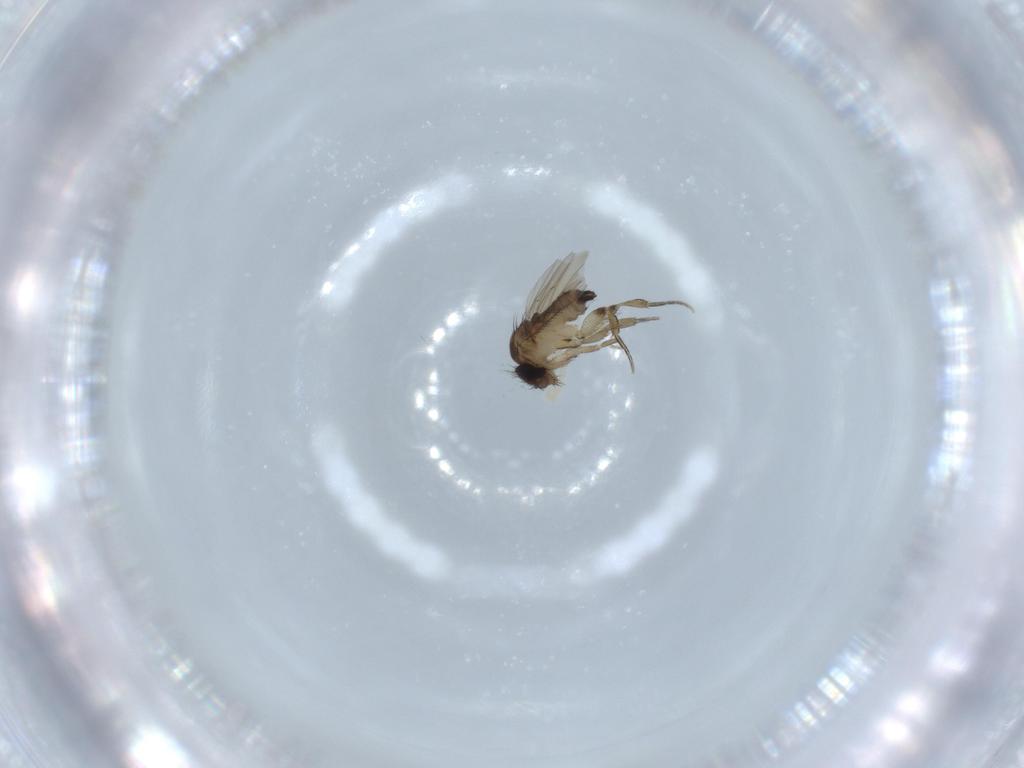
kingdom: Animalia
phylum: Arthropoda
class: Insecta
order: Diptera
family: Phoridae
